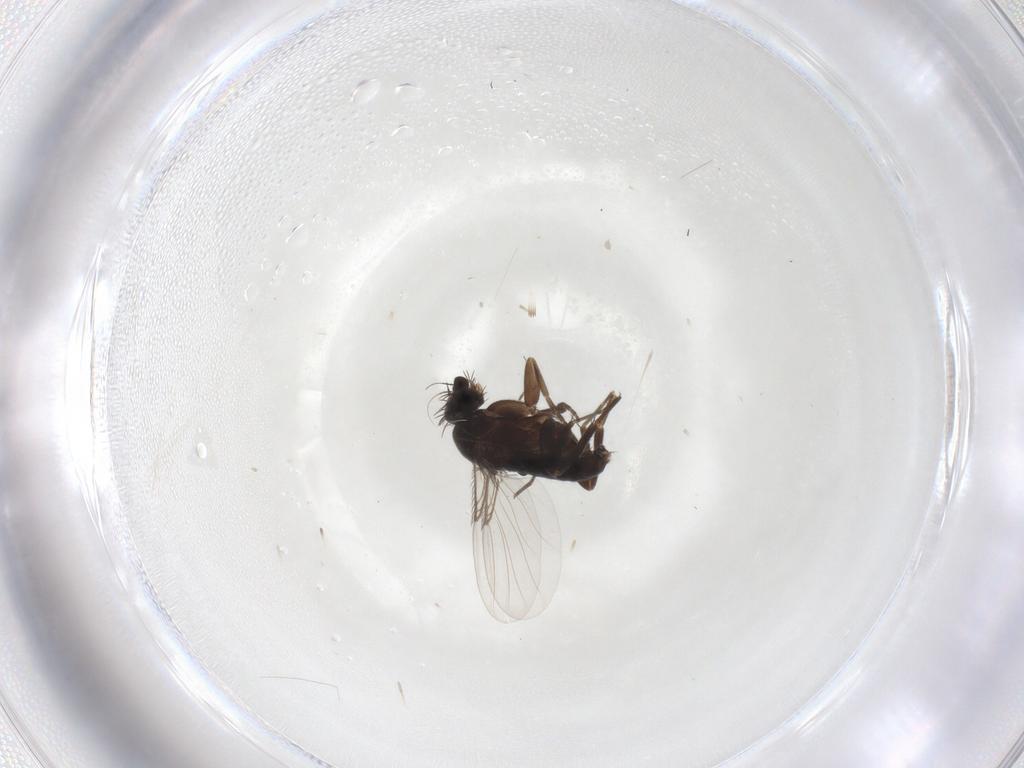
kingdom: Animalia
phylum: Arthropoda
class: Insecta
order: Diptera
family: Phoridae
